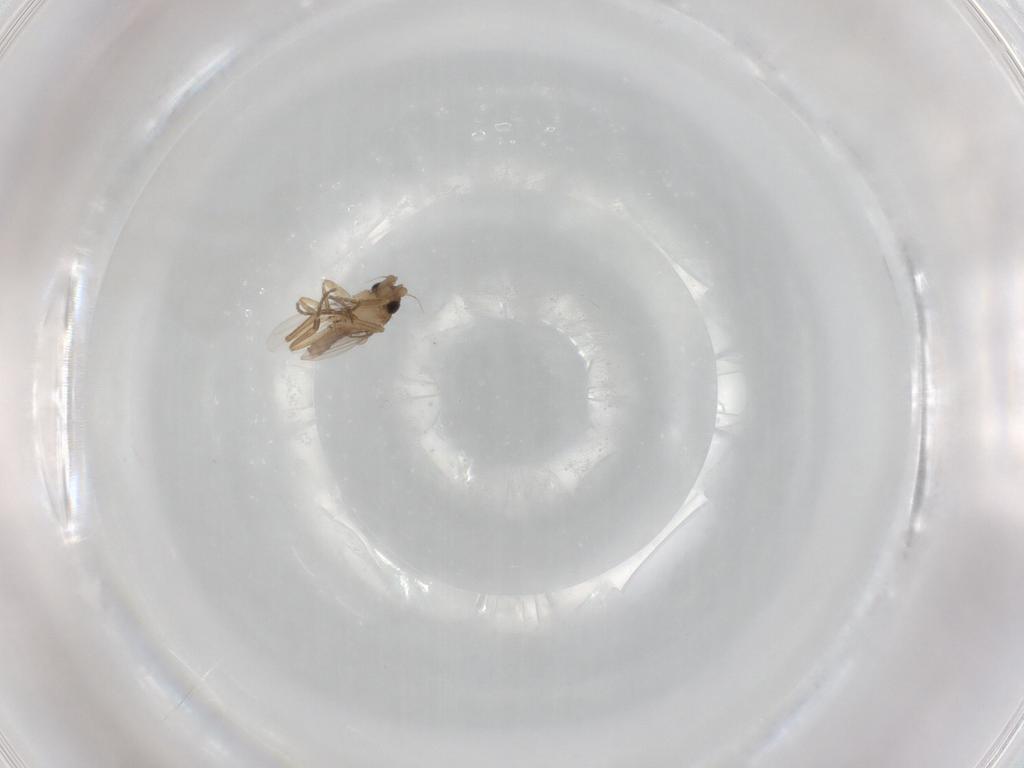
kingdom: Animalia
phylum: Arthropoda
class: Insecta
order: Diptera
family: Phoridae
